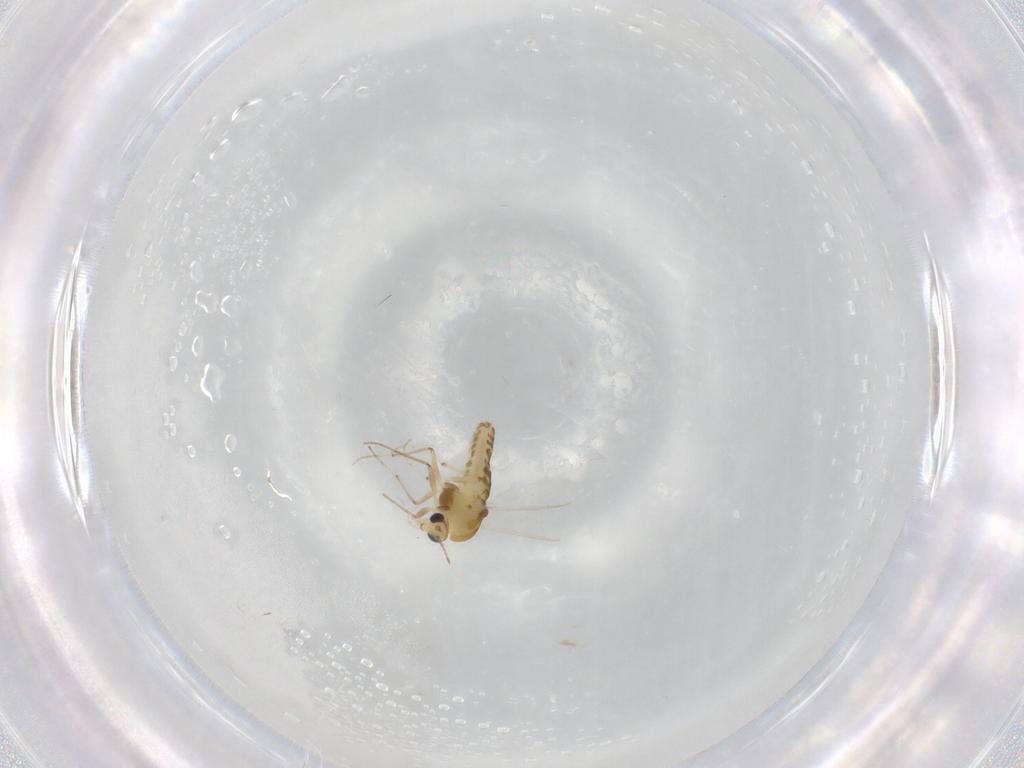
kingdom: Animalia
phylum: Arthropoda
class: Insecta
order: Diptera
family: Chironomidae
